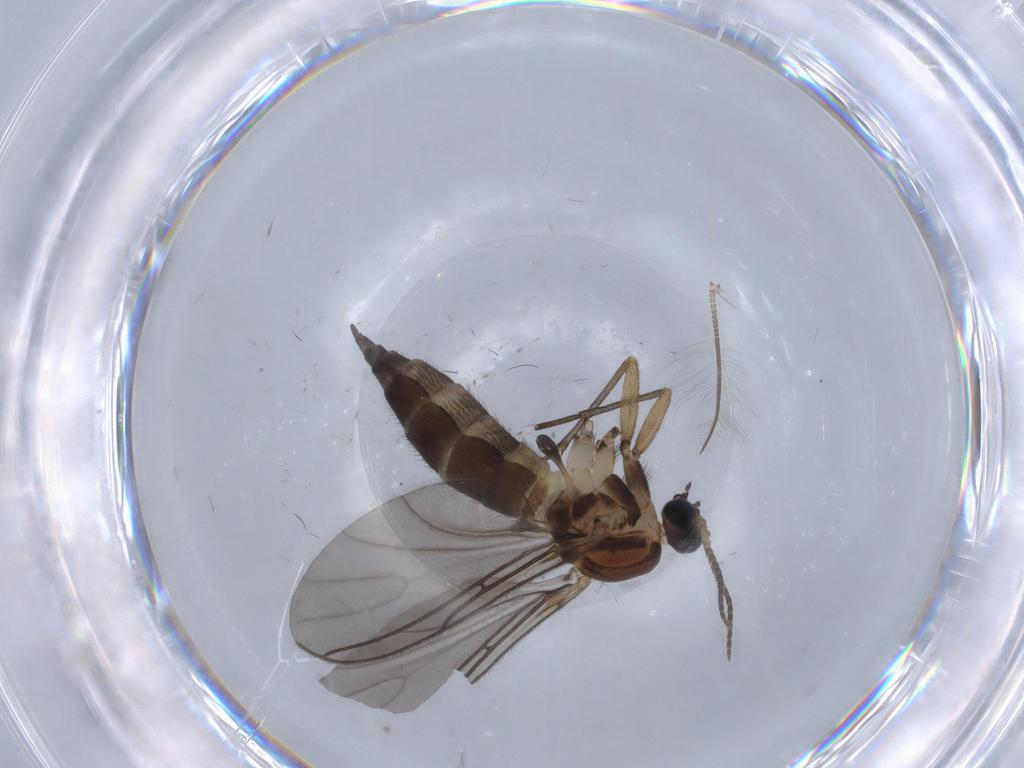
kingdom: Animalia
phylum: Arthropoda
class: Insecta
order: Diptera
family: Sciaridae
